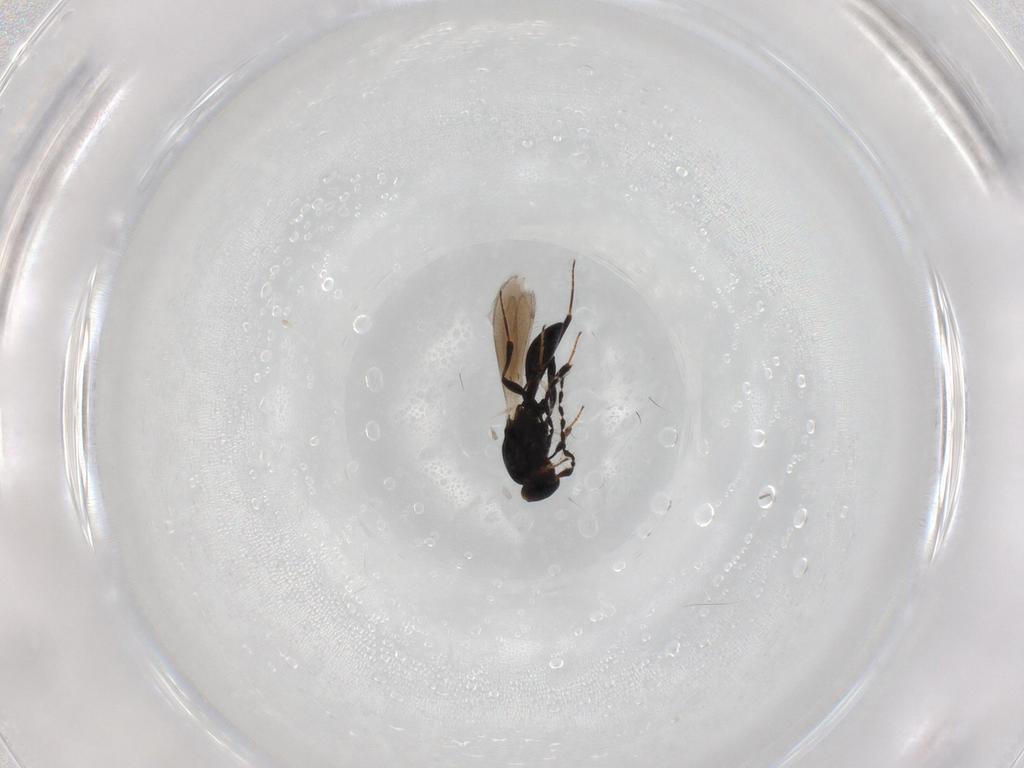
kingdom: Animalia
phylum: Arthropoda
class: Insecta
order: Hymenoptera
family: Platygastridae
